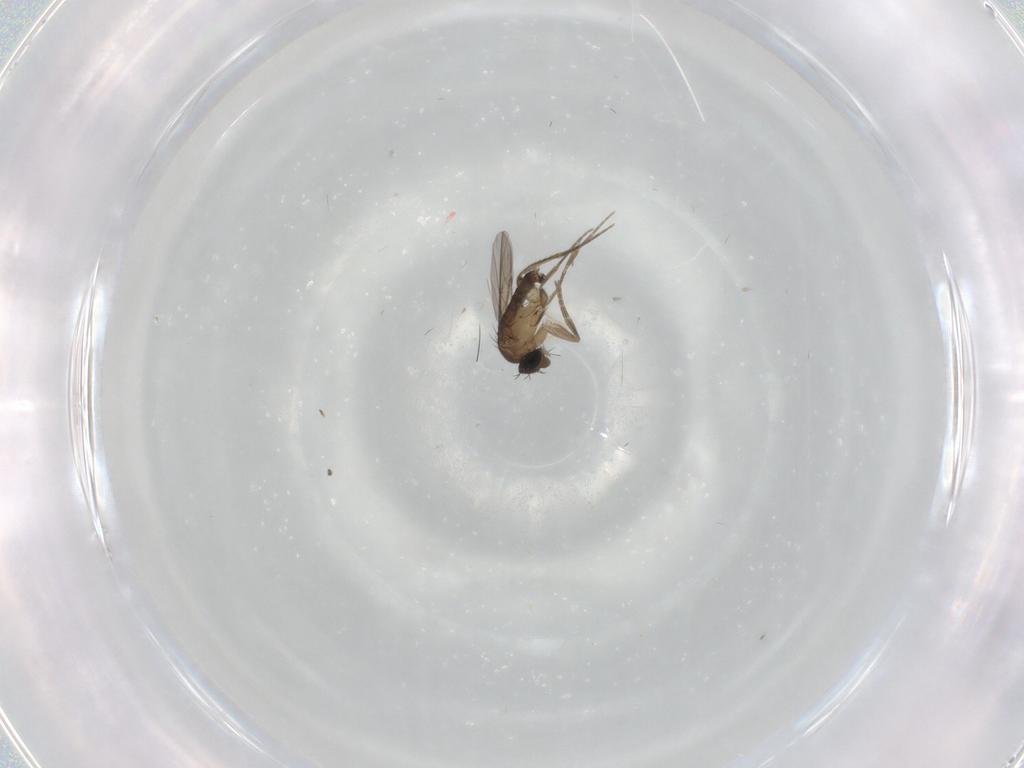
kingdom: Animalia
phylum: Arthropoda
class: Insecta
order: Diptera
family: Phoridae
